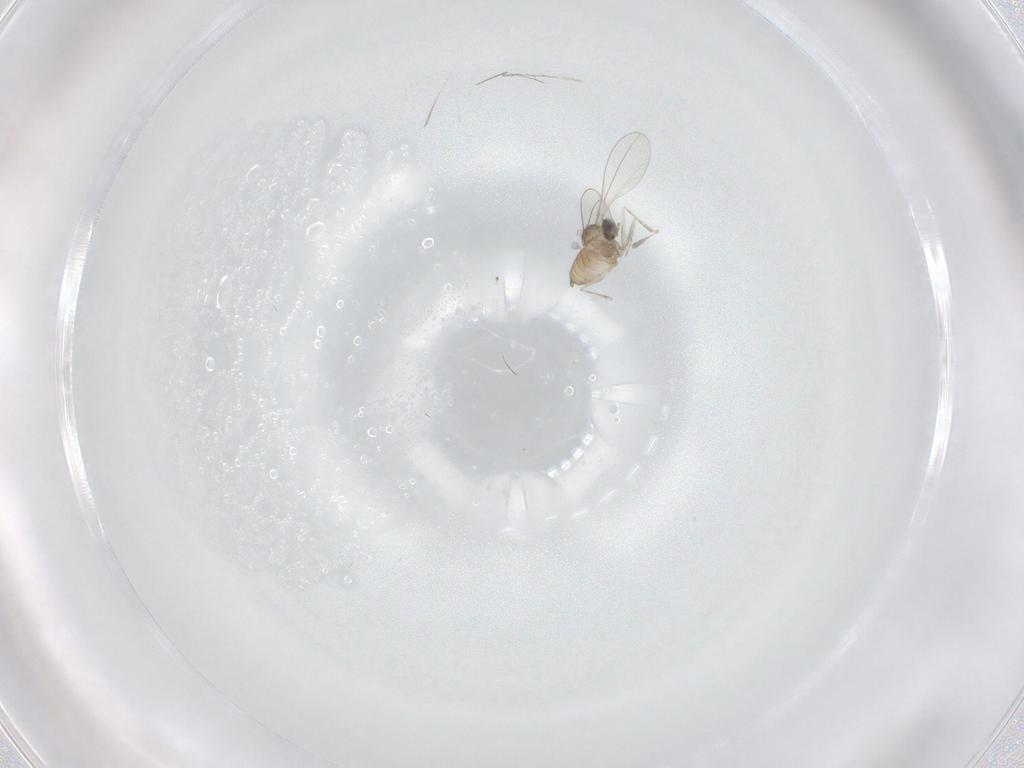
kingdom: Animalia
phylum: Arthropoda
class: Insecta
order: Diptera
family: Cecidomyiidae
